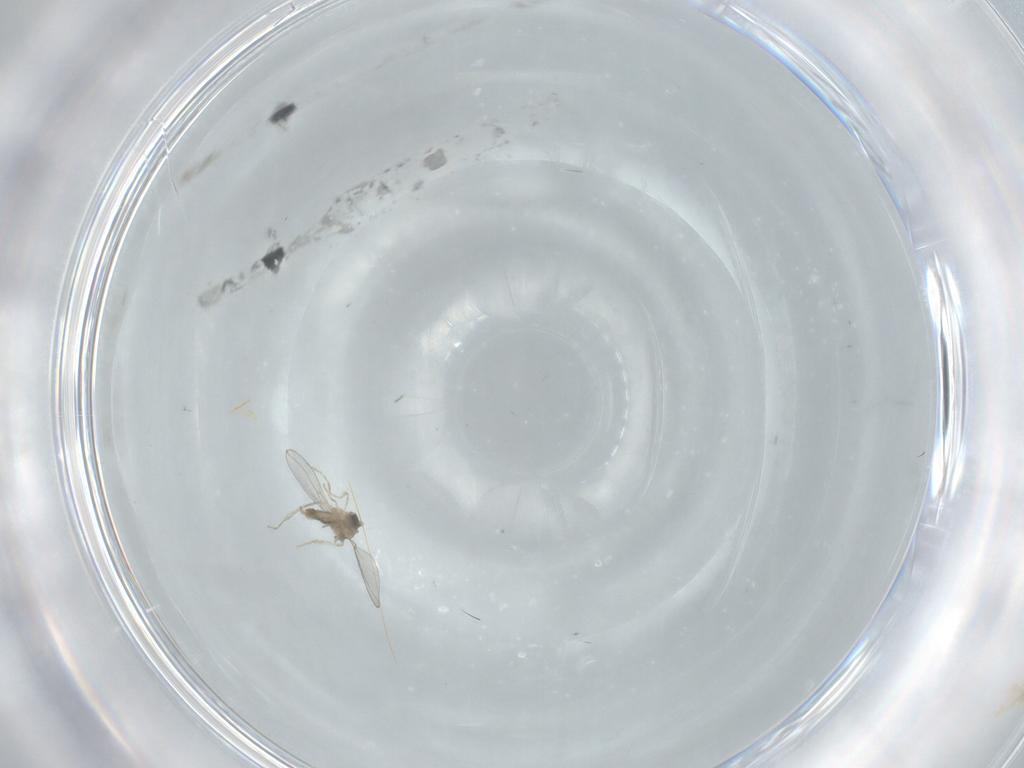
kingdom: Animalia
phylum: Arthropoda
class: Insecta
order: Diptera
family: Cecidomyiidae
